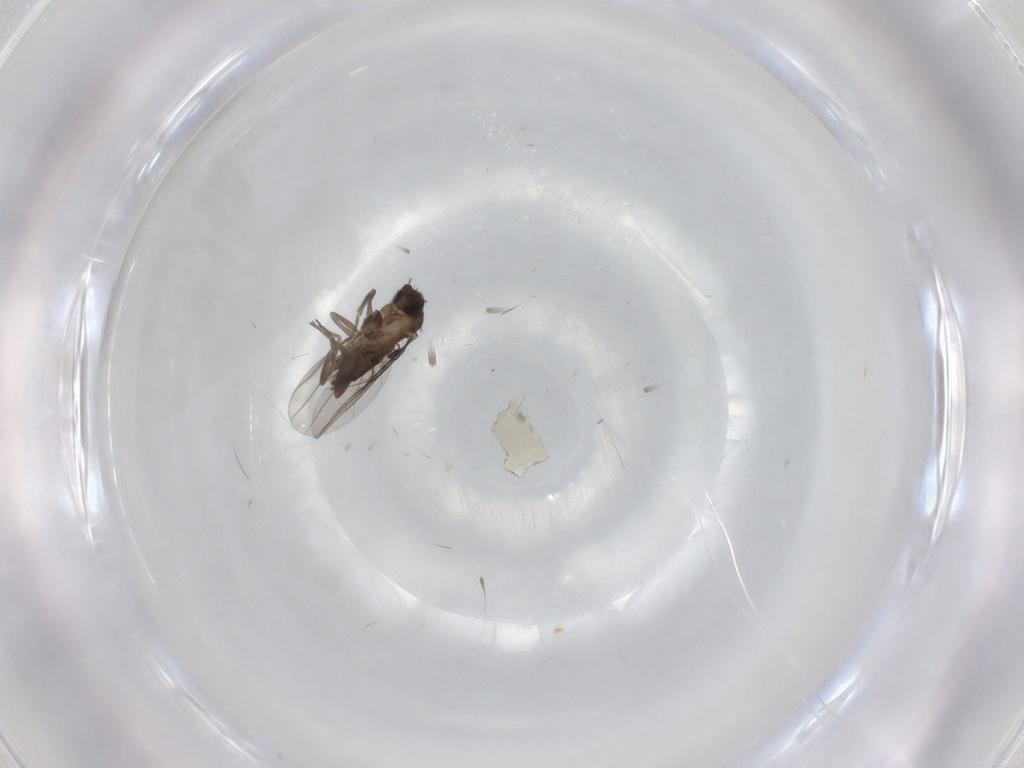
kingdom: Animalia
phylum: Arthropoda
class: Insecta
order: Diptera
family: Chironomidae
